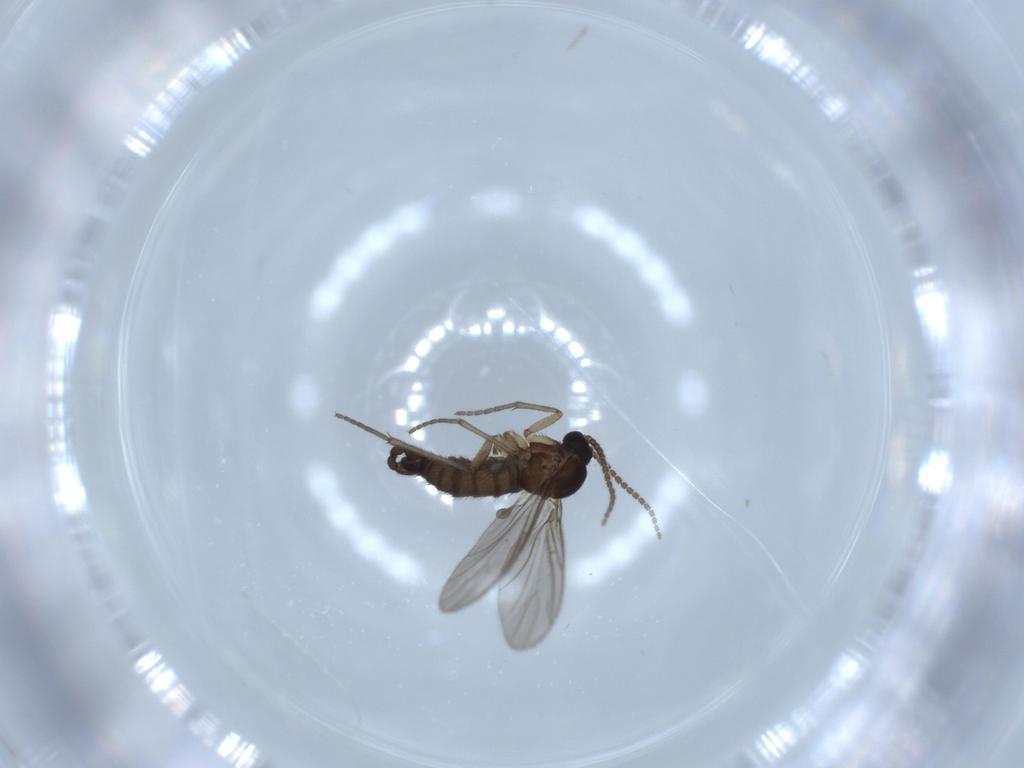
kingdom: Animalia
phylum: Arthropoda
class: Insecta
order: Diptera
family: Sciaridae
